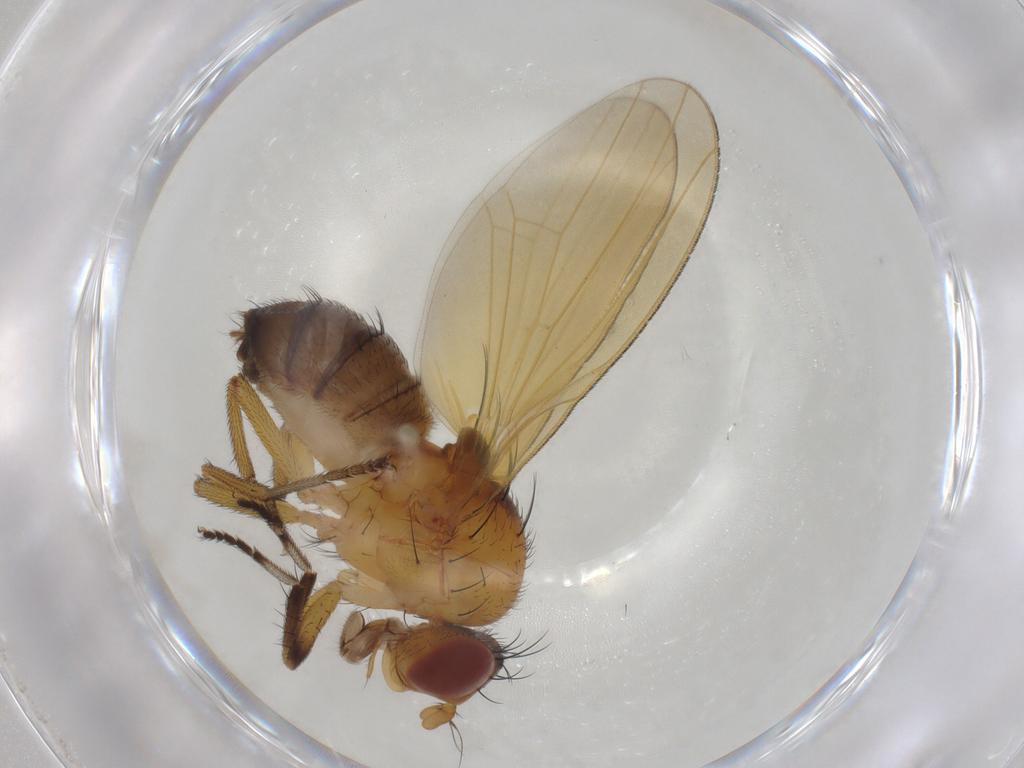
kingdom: Animalia
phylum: Arthropoda
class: Insecta
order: Diptera
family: Muscidae
